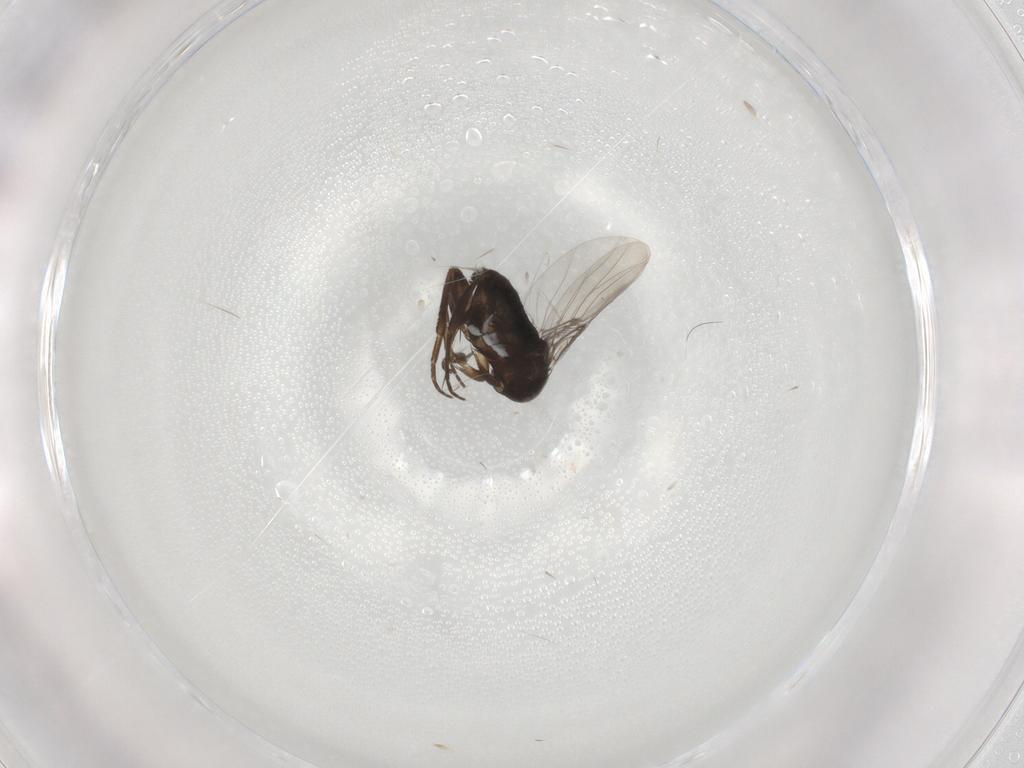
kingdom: Animalia
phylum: Arthropoda
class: Insecta
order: Diptera
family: Phoridae
